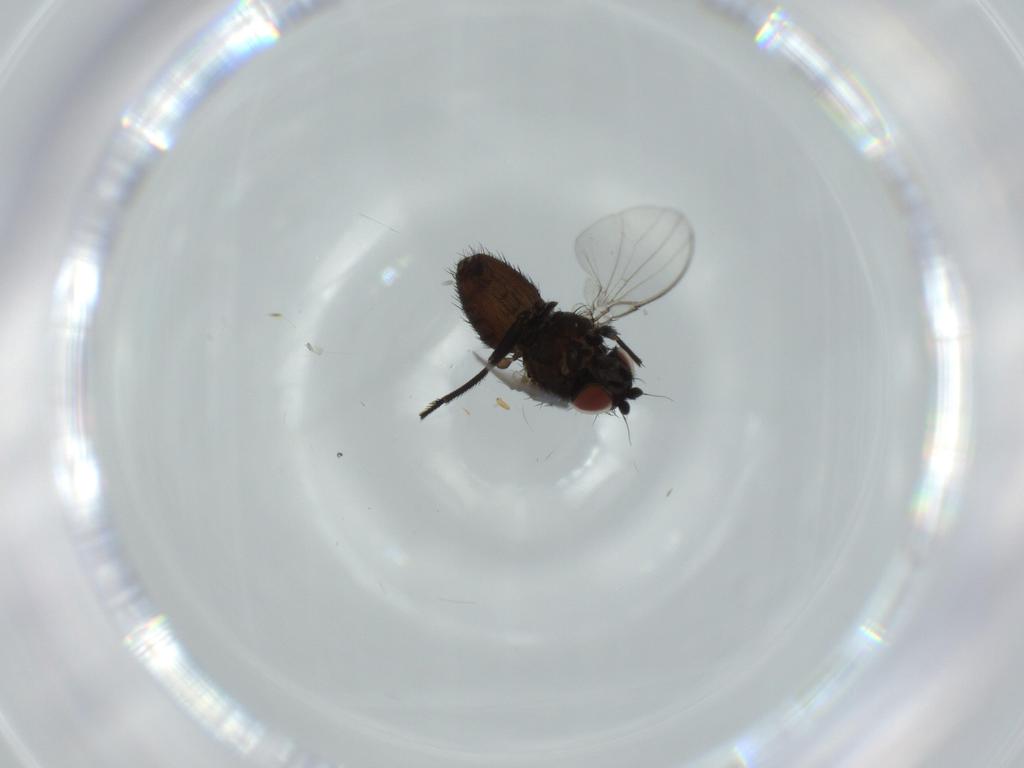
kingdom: Animalia
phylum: Arthropoda
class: Insecta
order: Diptera
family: Milichiidae
